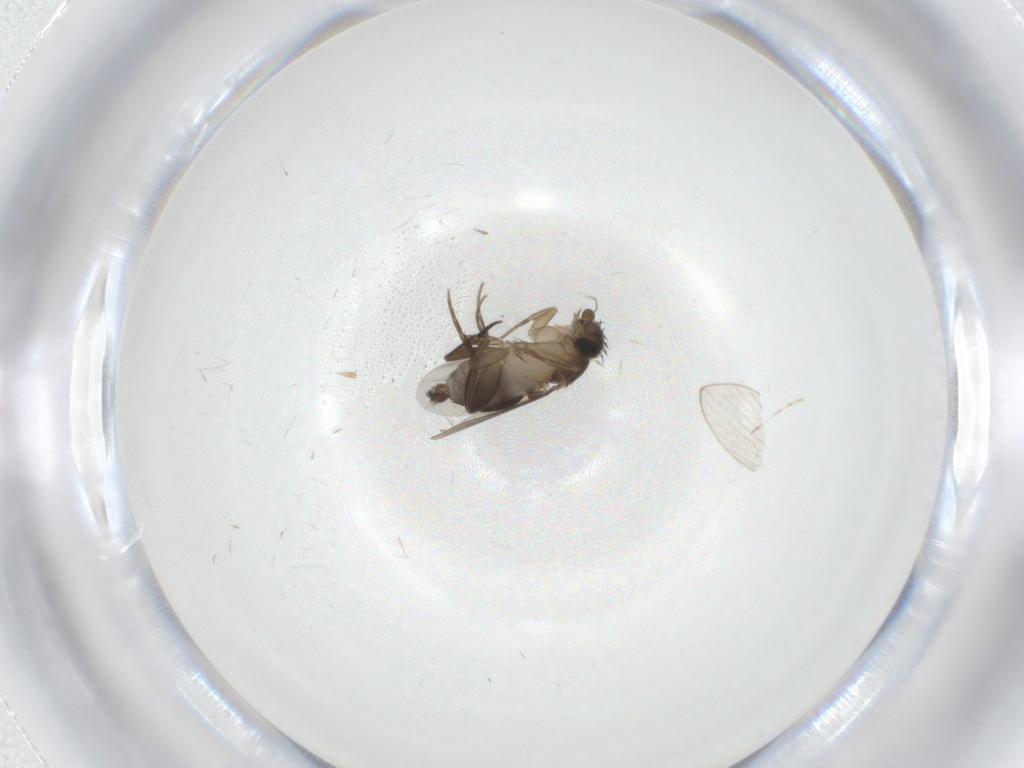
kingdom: Animalia
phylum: Arthropoda
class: Insecta
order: Diptera
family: Phoridae
